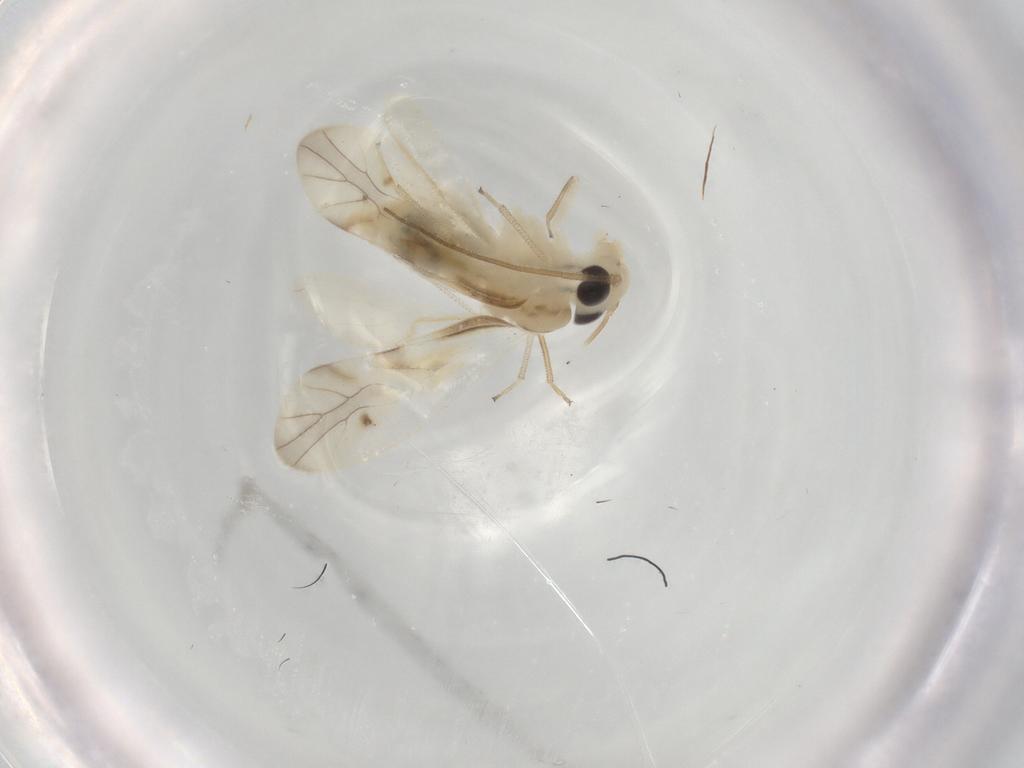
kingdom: Animalia
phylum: Arthropoda
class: Insecta
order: Psocodea
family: Caeciliusidae
